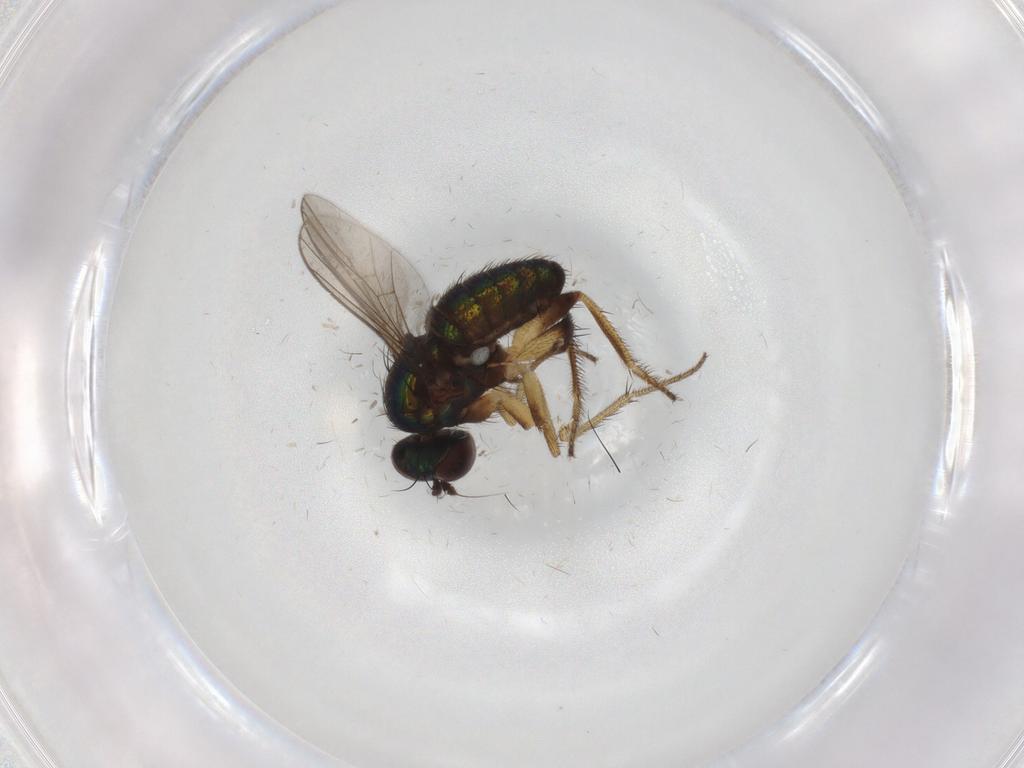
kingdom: Animalia
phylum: Arthropoda
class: Insecta
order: Diptera
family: Dolichopodidae
